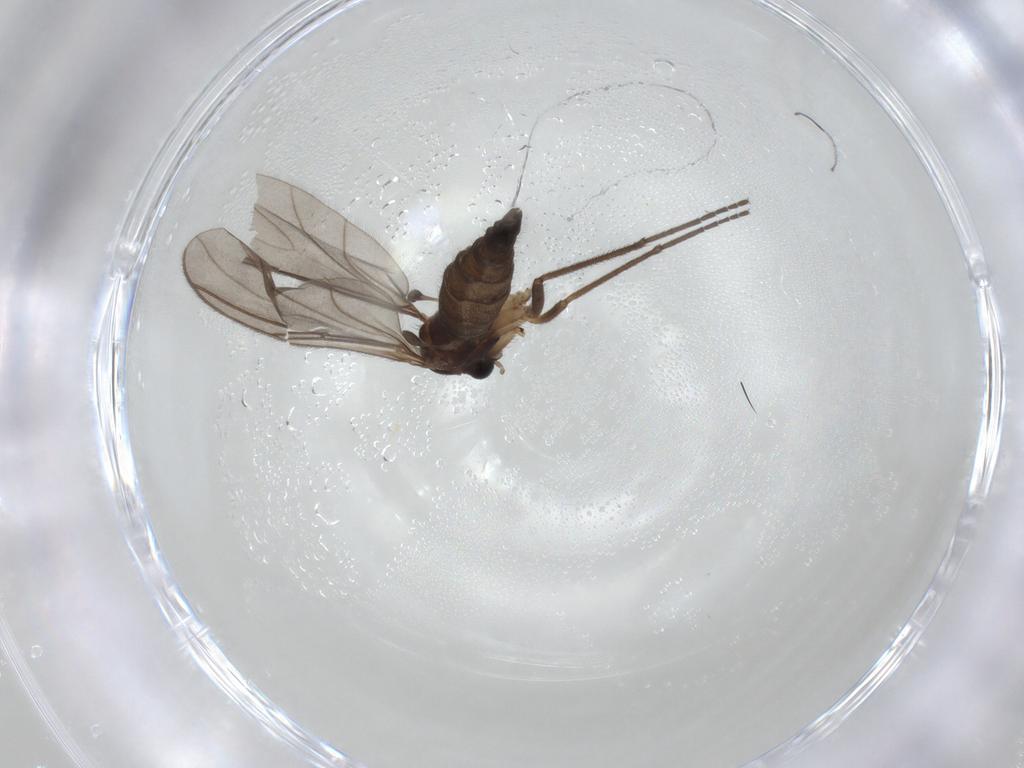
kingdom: Animalia
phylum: Arthropoda
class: Insecta
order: Diptera
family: Sciaridae
